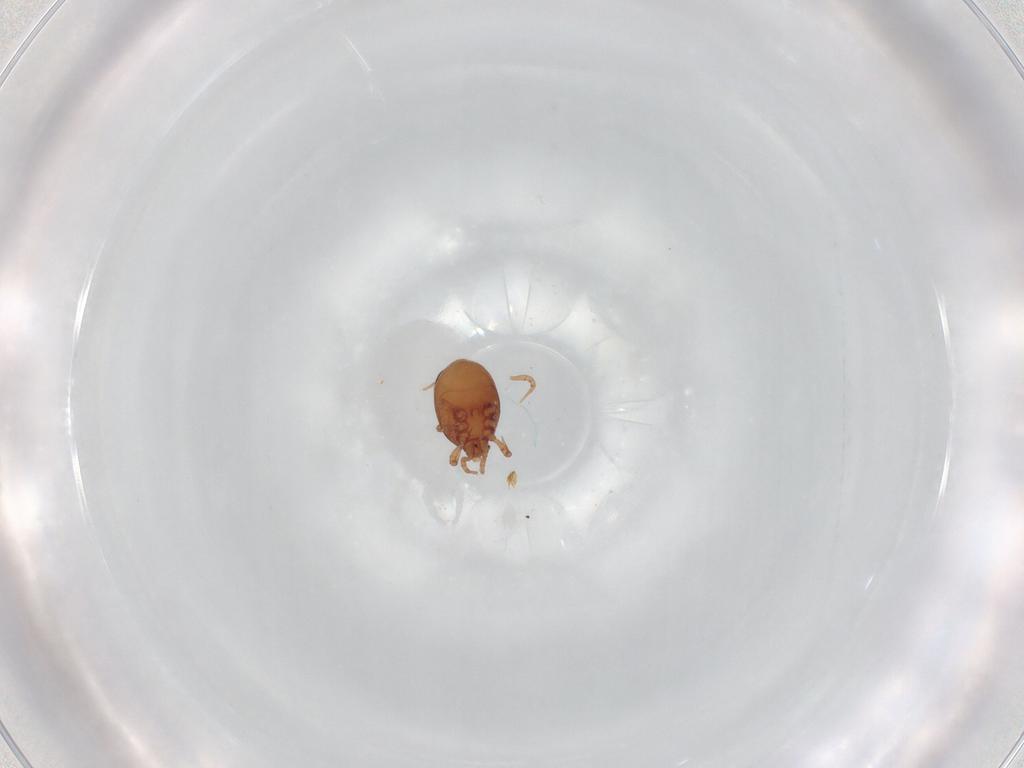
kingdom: Animalia
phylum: Arthropoda
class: Arachnida
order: Mesostigmata
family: Dinychidae
